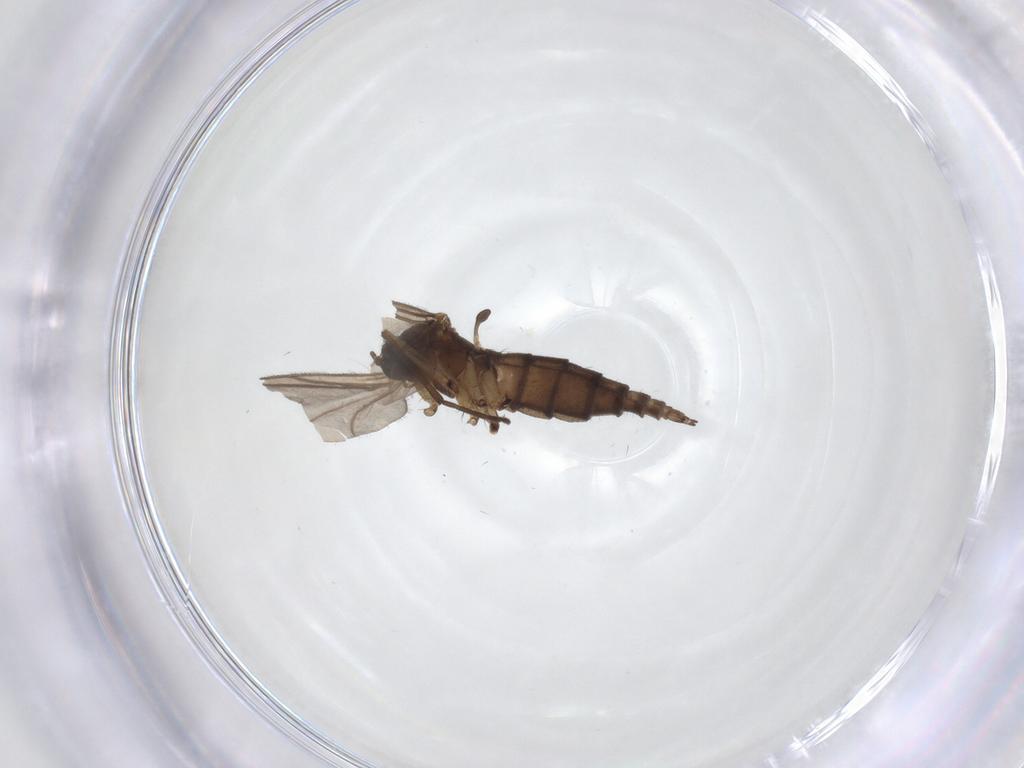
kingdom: Animalia
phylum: Arthropoda
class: Insecta
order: Diptera
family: Sciaridae
